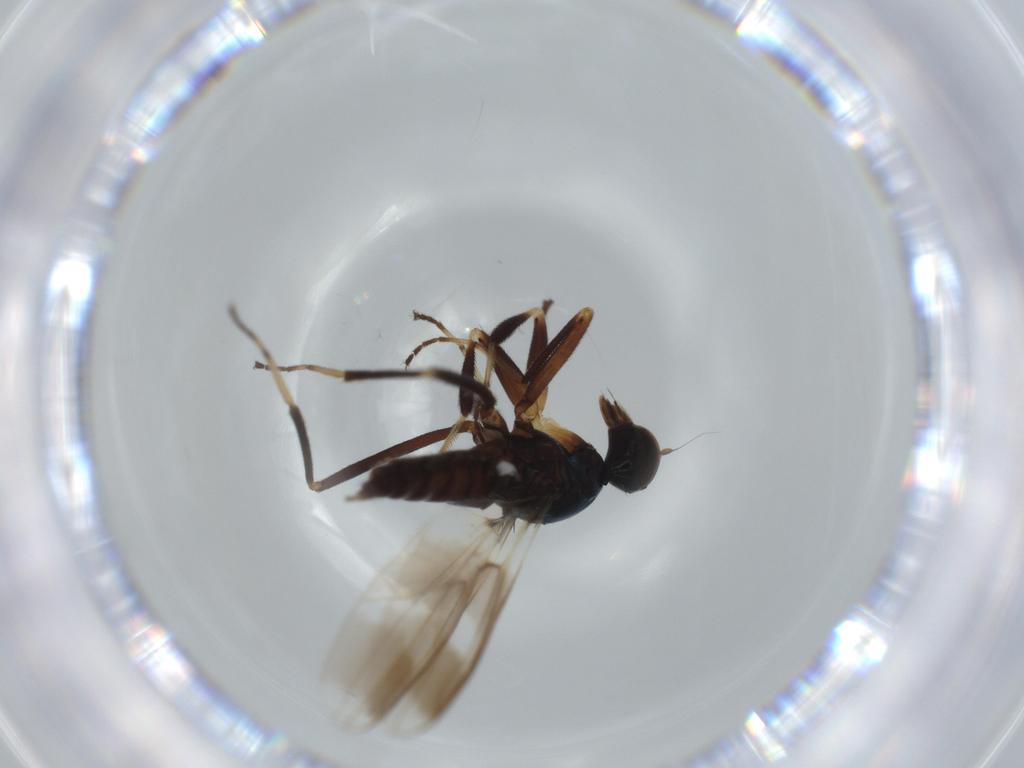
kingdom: Animalia
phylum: Arthropoda
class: Insecta
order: Diptera
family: Hybotidae
